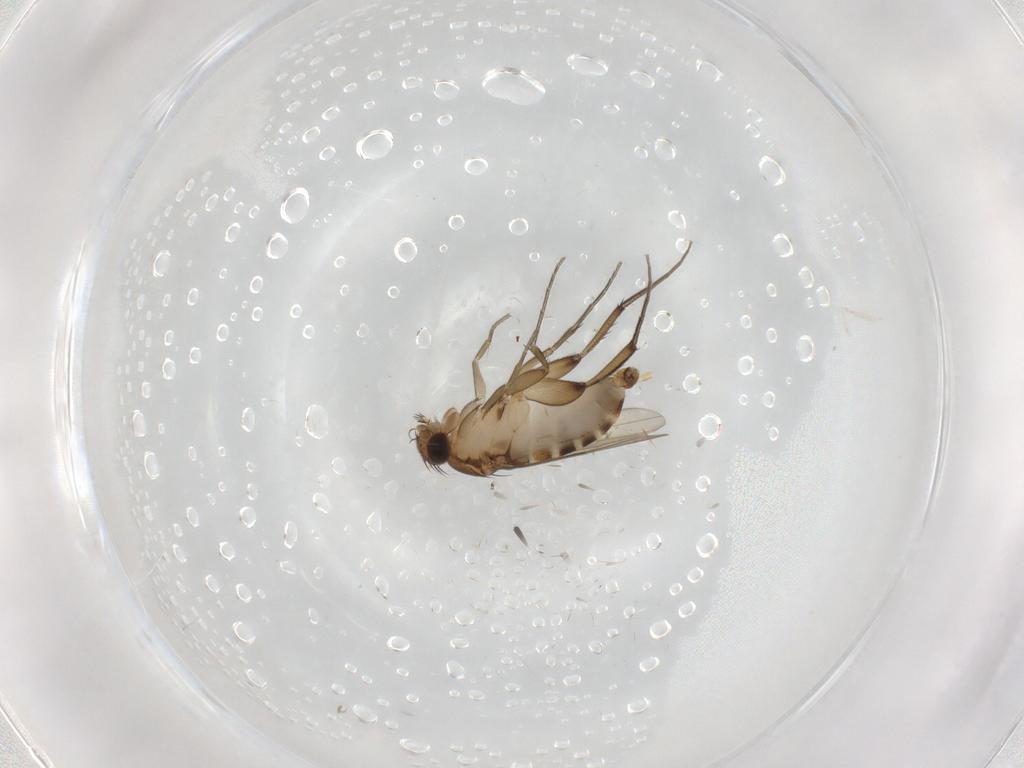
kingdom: Animalia
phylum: Arthropoda
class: Insecta
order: Diptera
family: Phoridae
